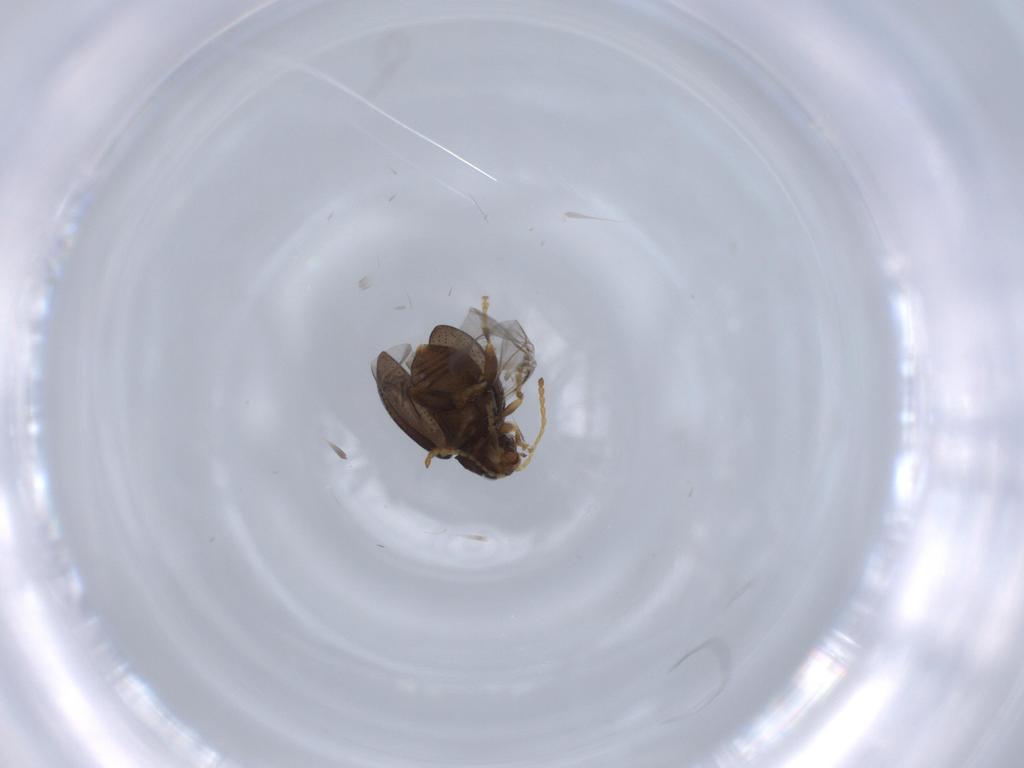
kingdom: Animalia
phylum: Arthropoda
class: Insecta
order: Coleoptera
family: Chrysomelidae
